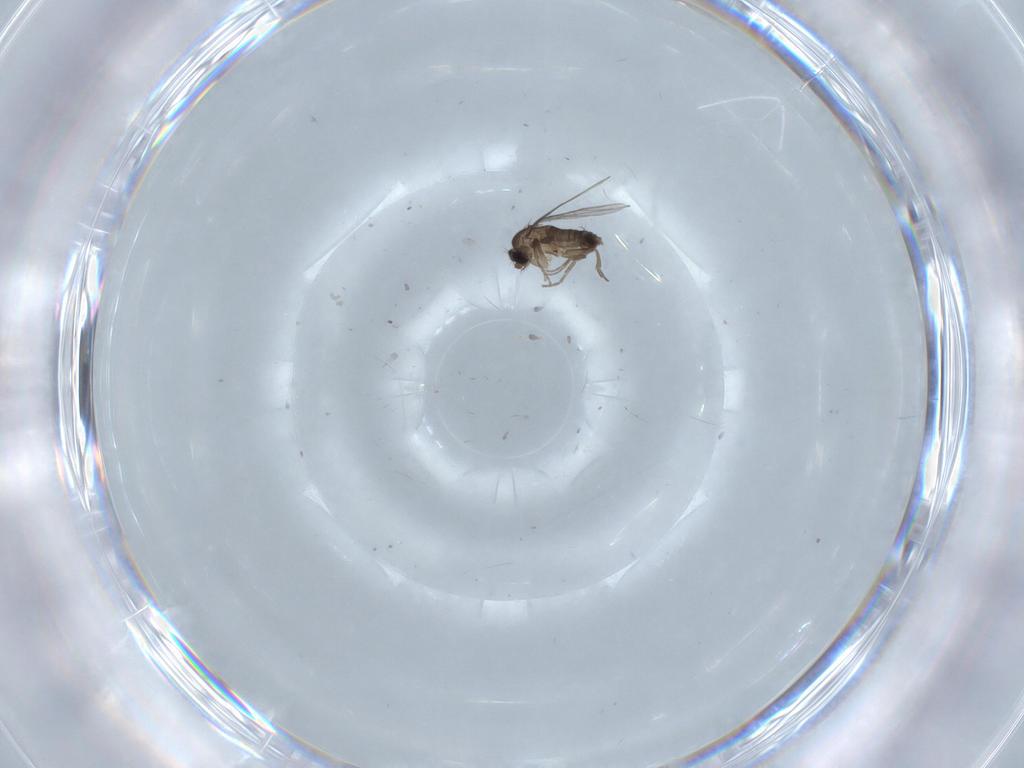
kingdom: Animalia
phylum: Arthropoda
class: Insecta
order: Diptera
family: Phoridae
